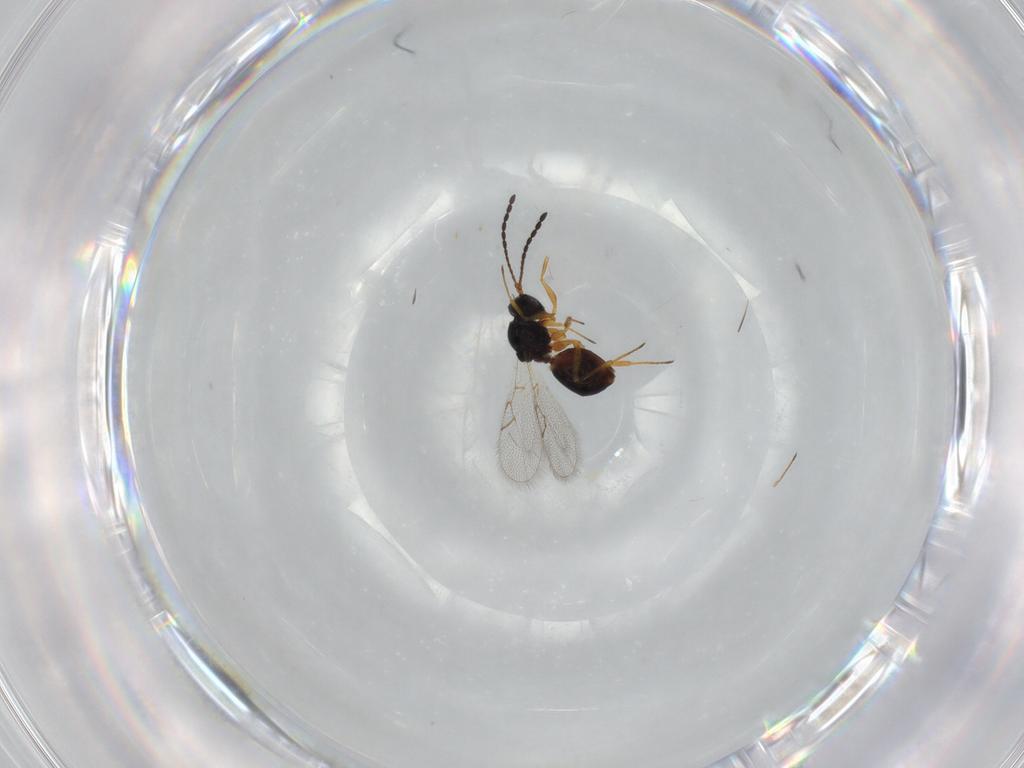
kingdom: Animalia
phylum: Arthropoda
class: Insecta
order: Hymenoptera
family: Figitidae
